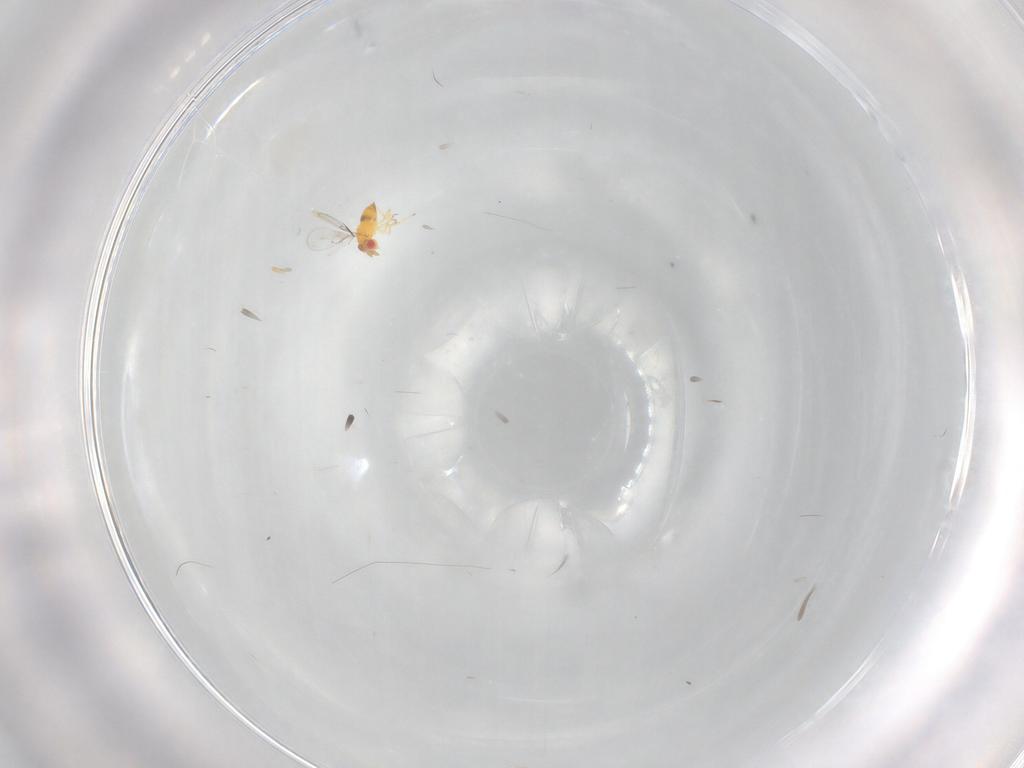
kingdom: Animalia
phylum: Arthropoda
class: Insecta
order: Hymenoptera
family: Trichogrammatidae
